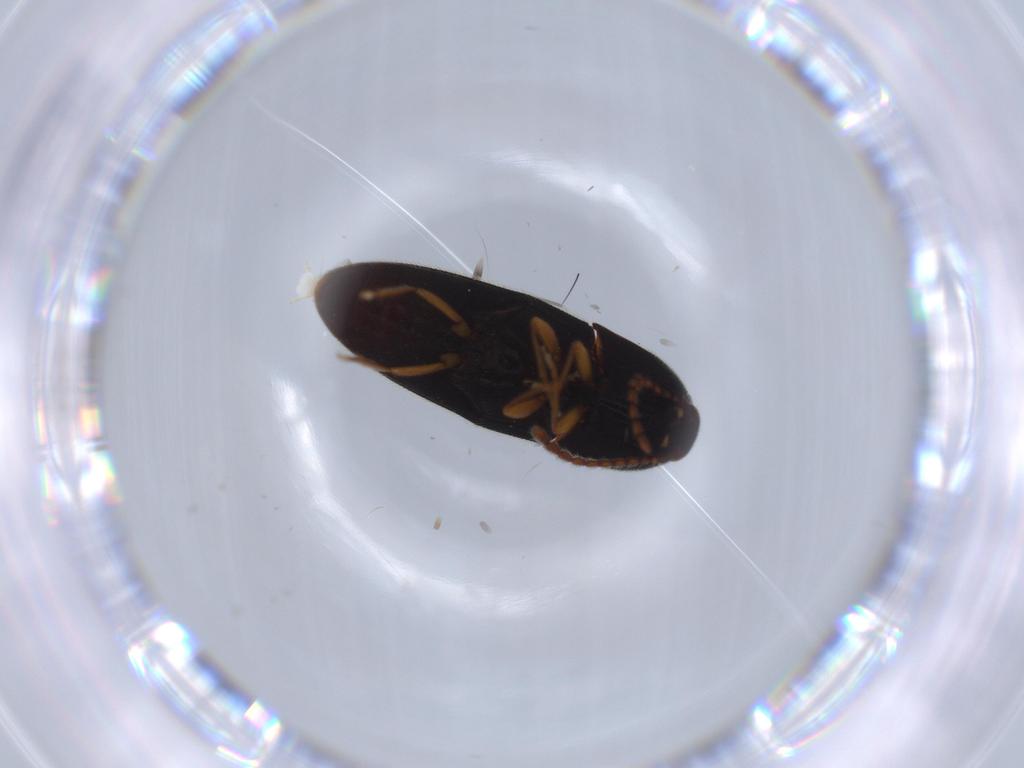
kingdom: Animalia
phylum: Arthropoda
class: Insecta
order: Coleoptera
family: Elateridae
